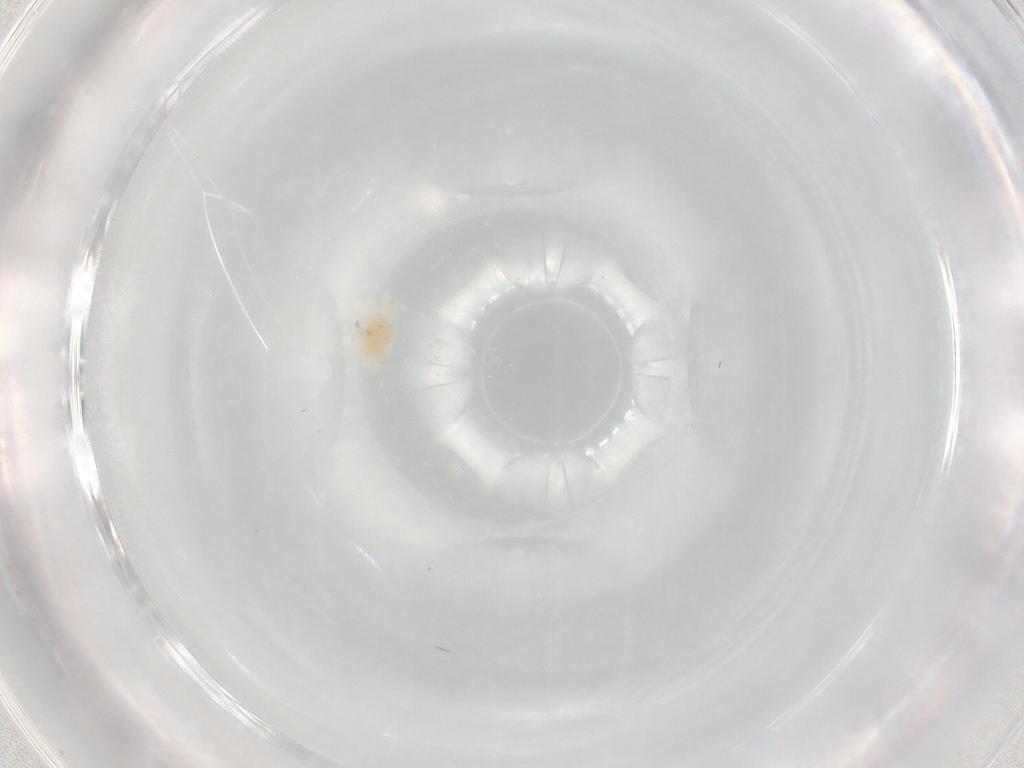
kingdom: Animalia
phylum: Arthropoda
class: Arachnida
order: Trombidiformes
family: Anystidae
